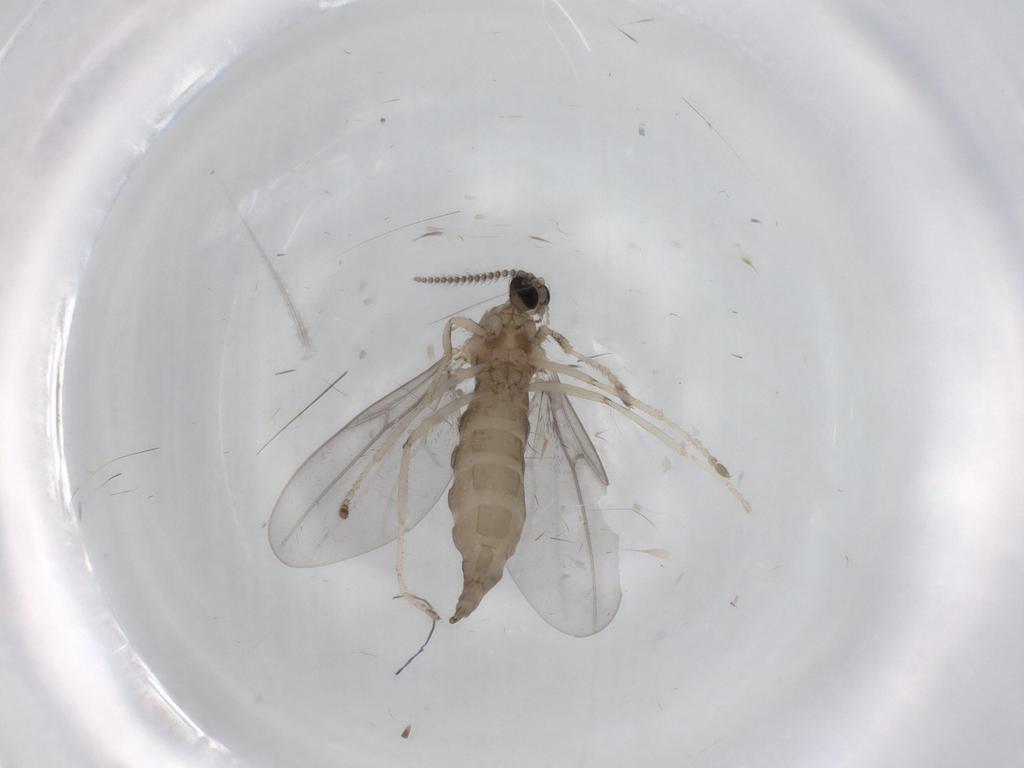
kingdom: Animalia
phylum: Arthropoda
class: Insecta
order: Diptera
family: Cecidomyiidae
